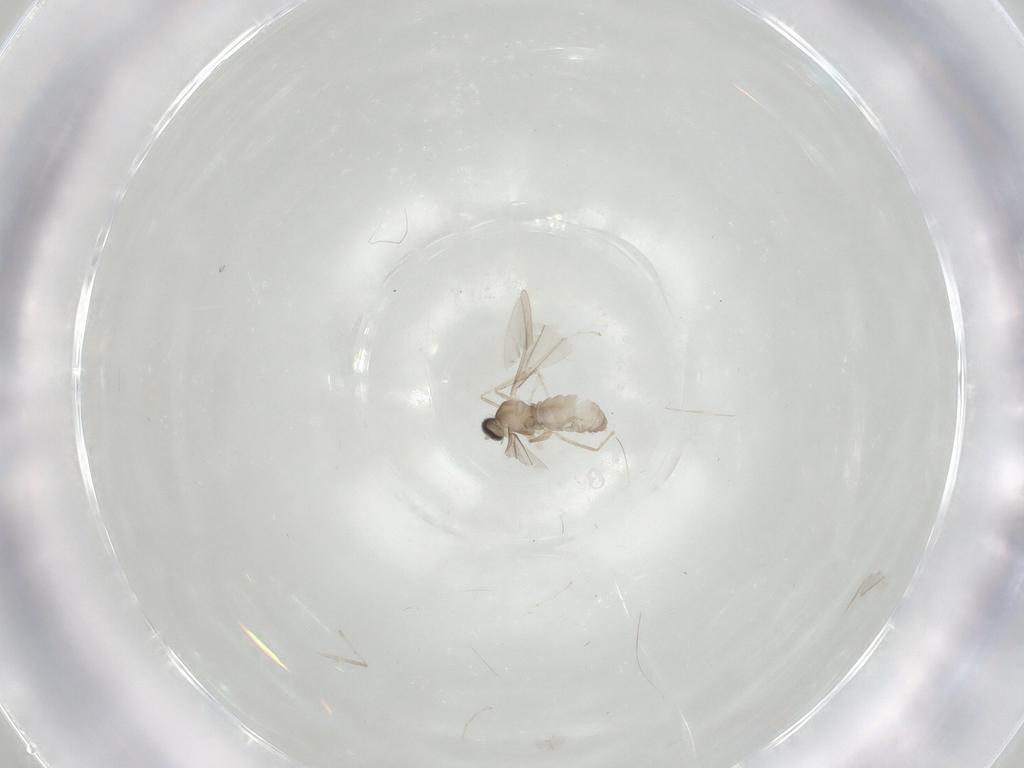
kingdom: Animalia
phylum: Arthropoda
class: Insecta
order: Diptera
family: Cecidomyiidae
